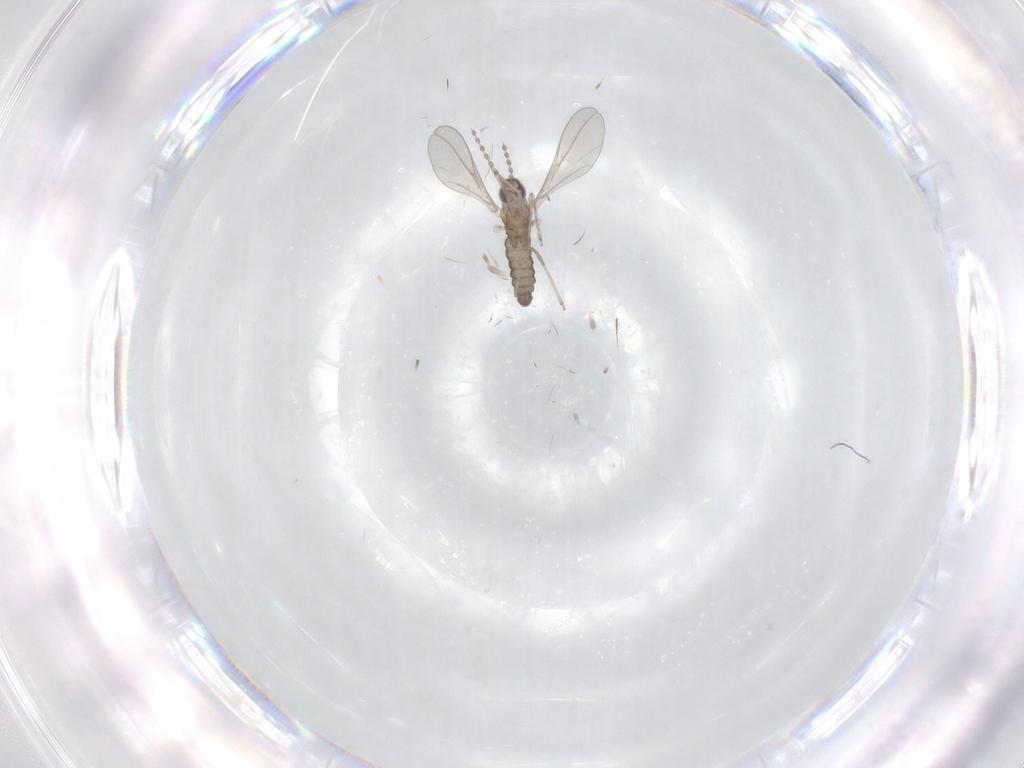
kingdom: Animalia
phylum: Arthropoda
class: Insecta
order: Diptera
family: Cecidomyiidae
